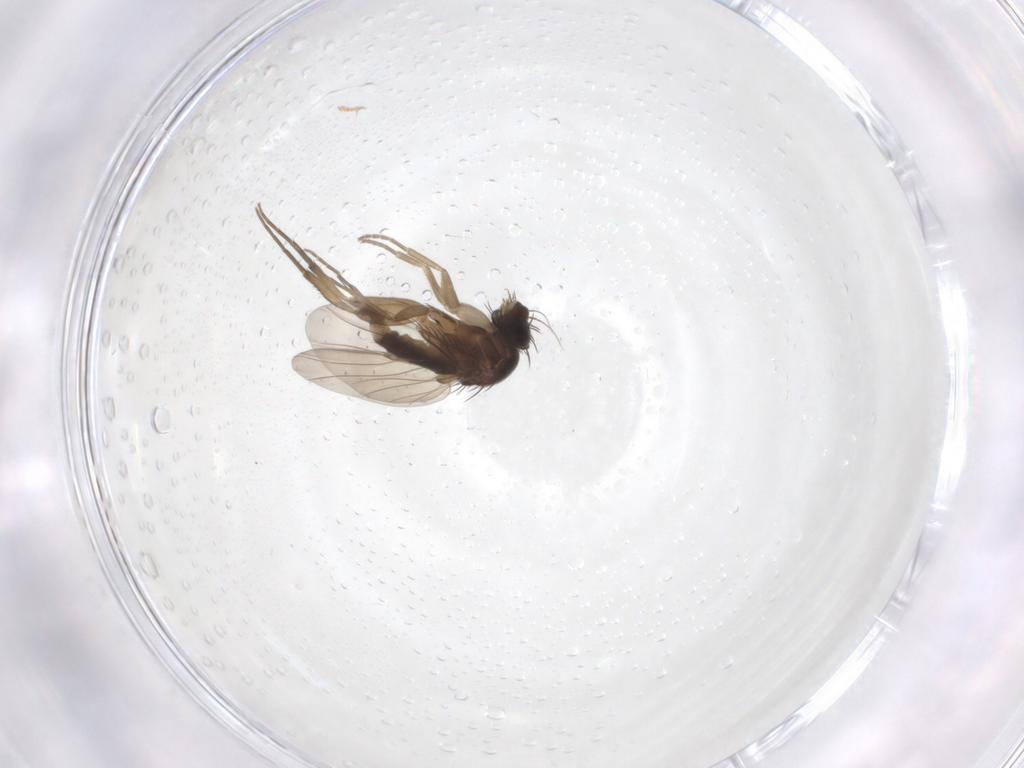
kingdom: Animalia
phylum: Arthropoda
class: Insecta
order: Diptera
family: Phoridae
